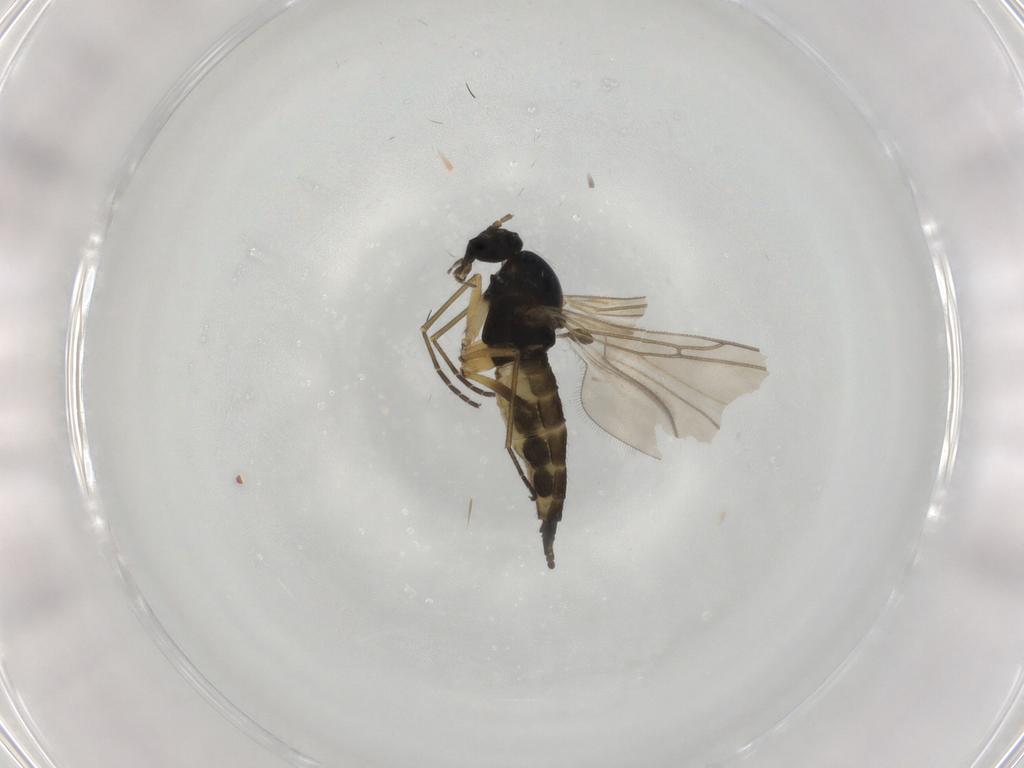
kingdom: Animalia
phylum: Arthropoda
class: Insecta
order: Diptera
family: Sciaridae
